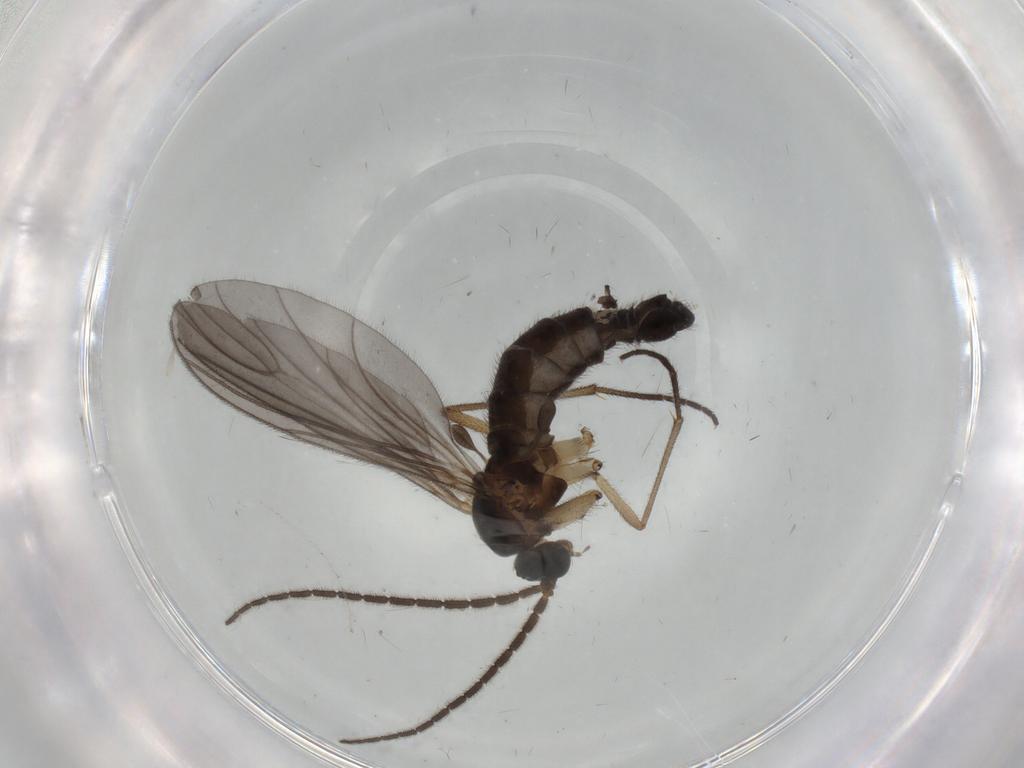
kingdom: Animalia
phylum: Arthropoda
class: Insecta
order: Diptera
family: Sciaridae
